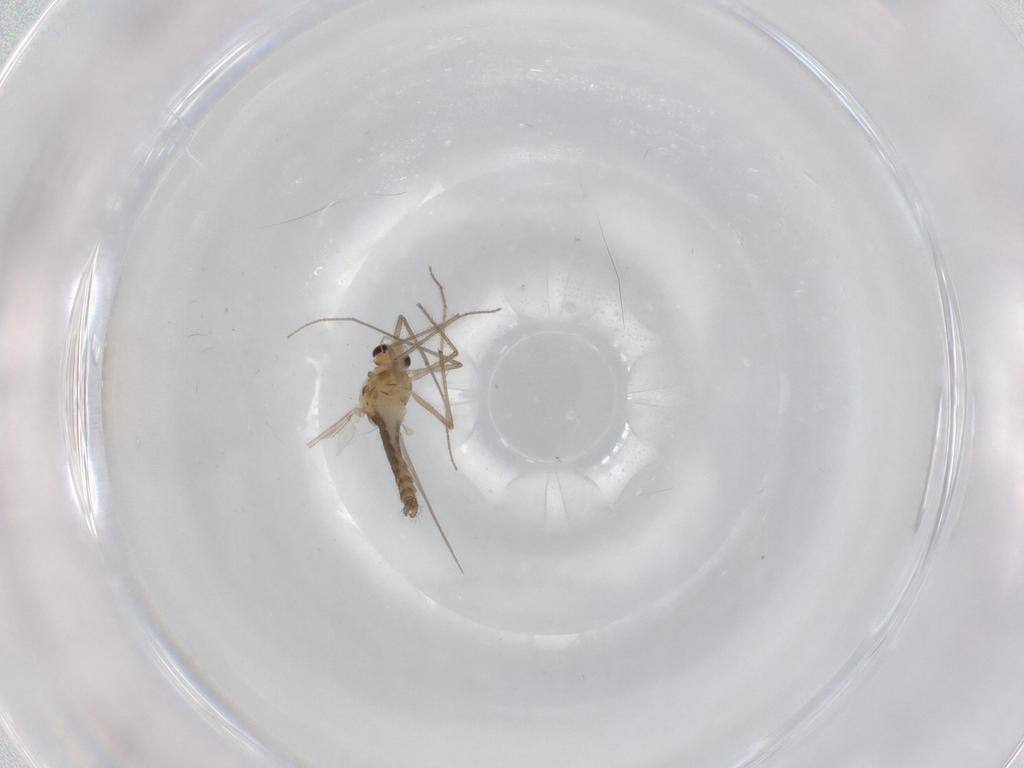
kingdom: Animalia
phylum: Arthropoda
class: Insecta
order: Diptera
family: Chironomidae
